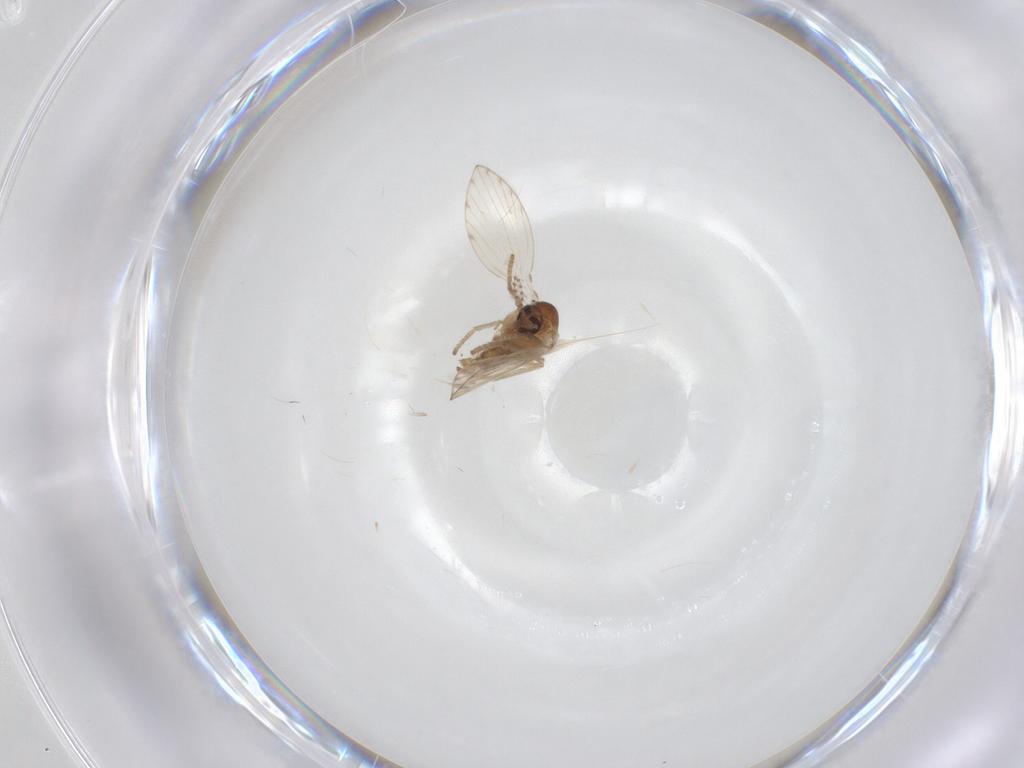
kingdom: Animalia
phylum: Arthropoda
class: Insecta
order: Diptera
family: Psychodidae
